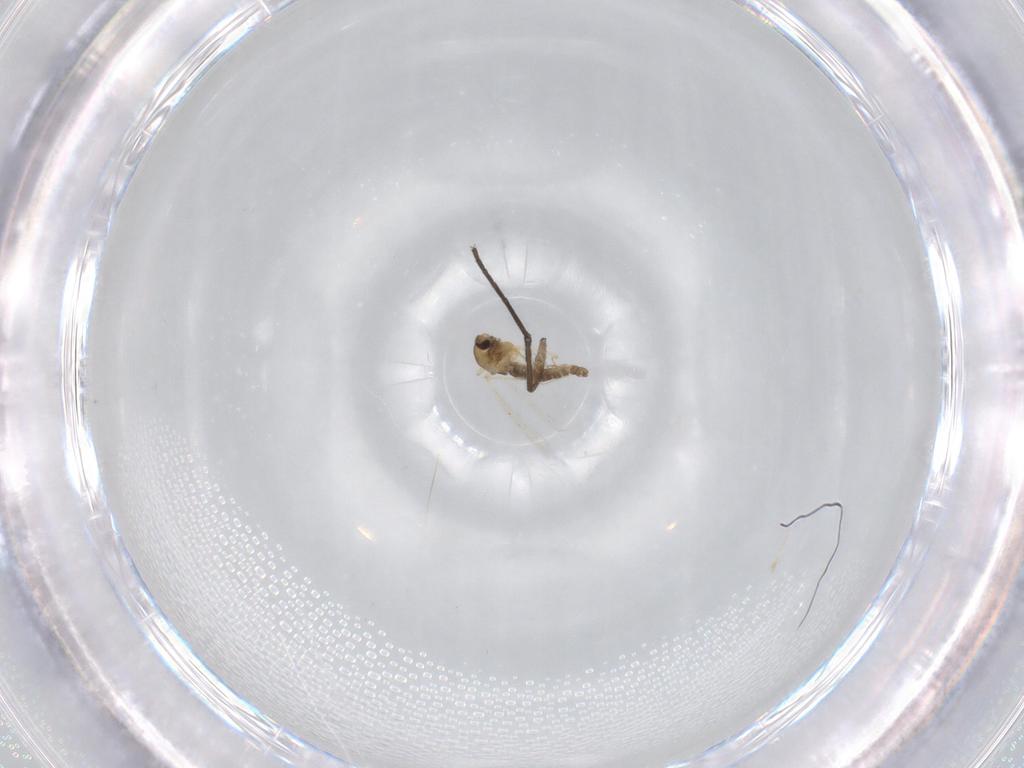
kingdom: Animalia
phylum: Arthropoda
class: Insecta
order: Diptera
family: Chironomidae
